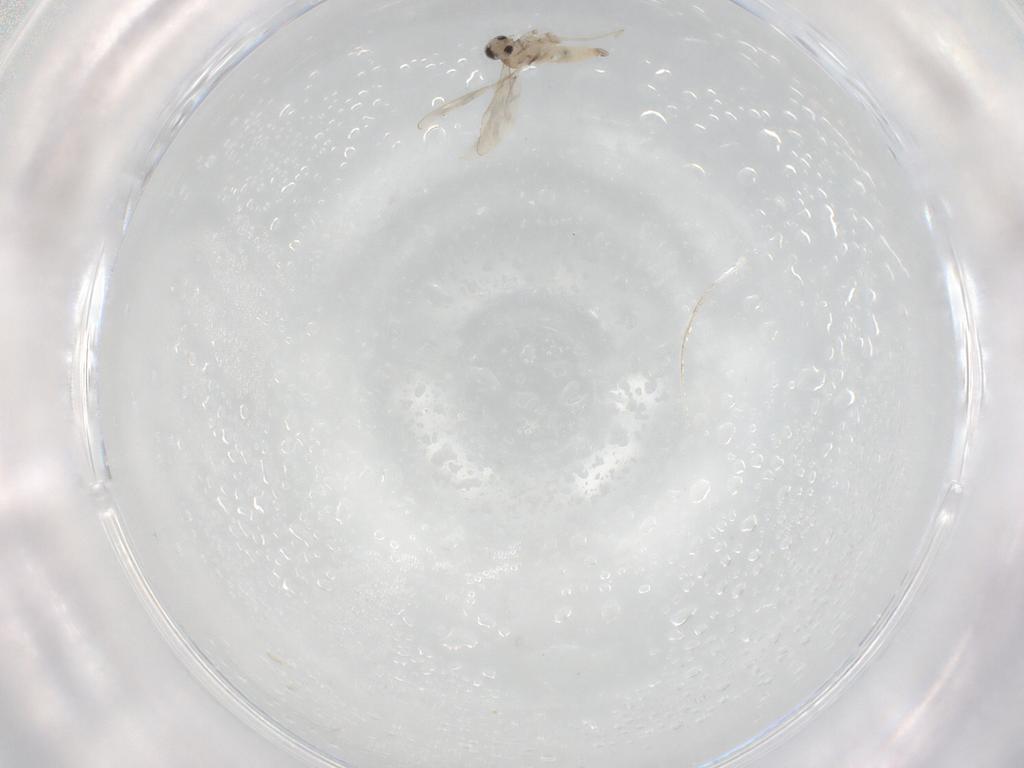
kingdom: Animalia
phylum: Arthropoda
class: Insecta
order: Diptera
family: Cecidomyiidae
